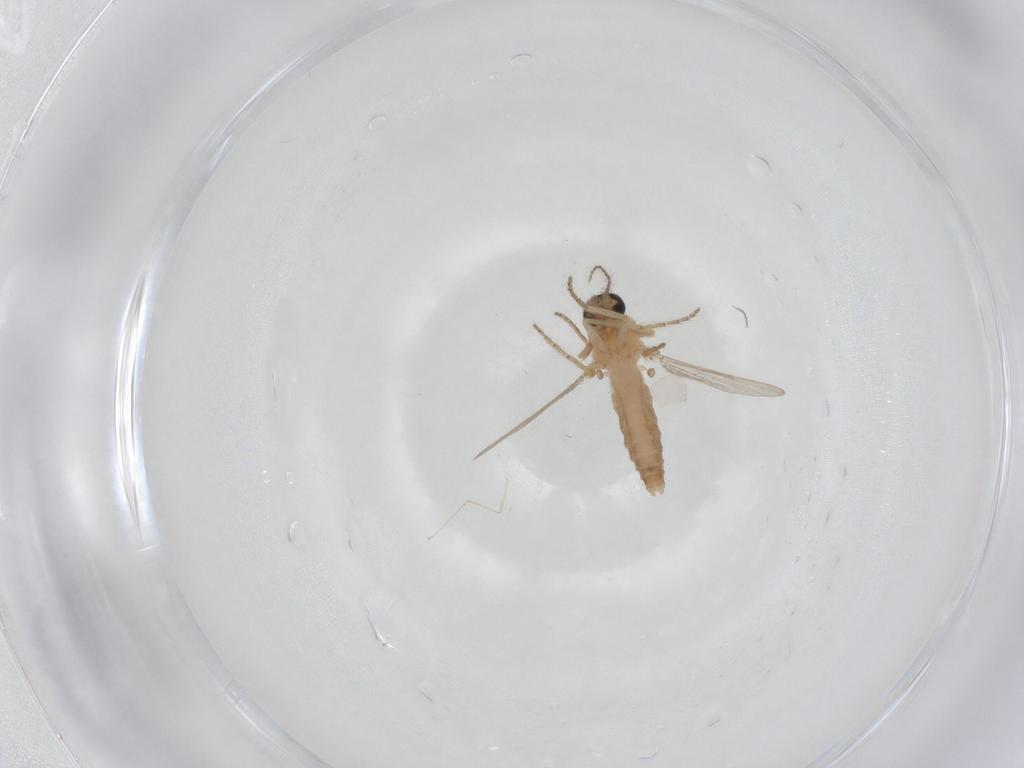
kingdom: Animalia
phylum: Arthropoda
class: Insecta
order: Diptera
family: Ceratopogonidae
